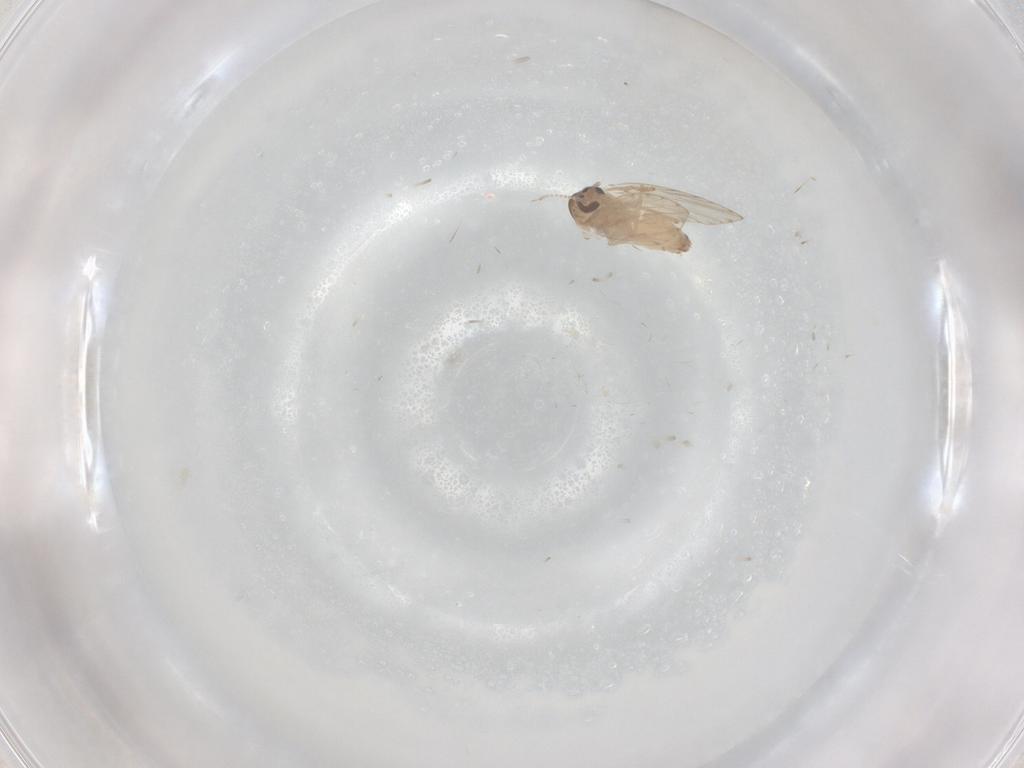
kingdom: Animalia
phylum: Arthropoda
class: Insecta
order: Diptera
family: Psychodidae
